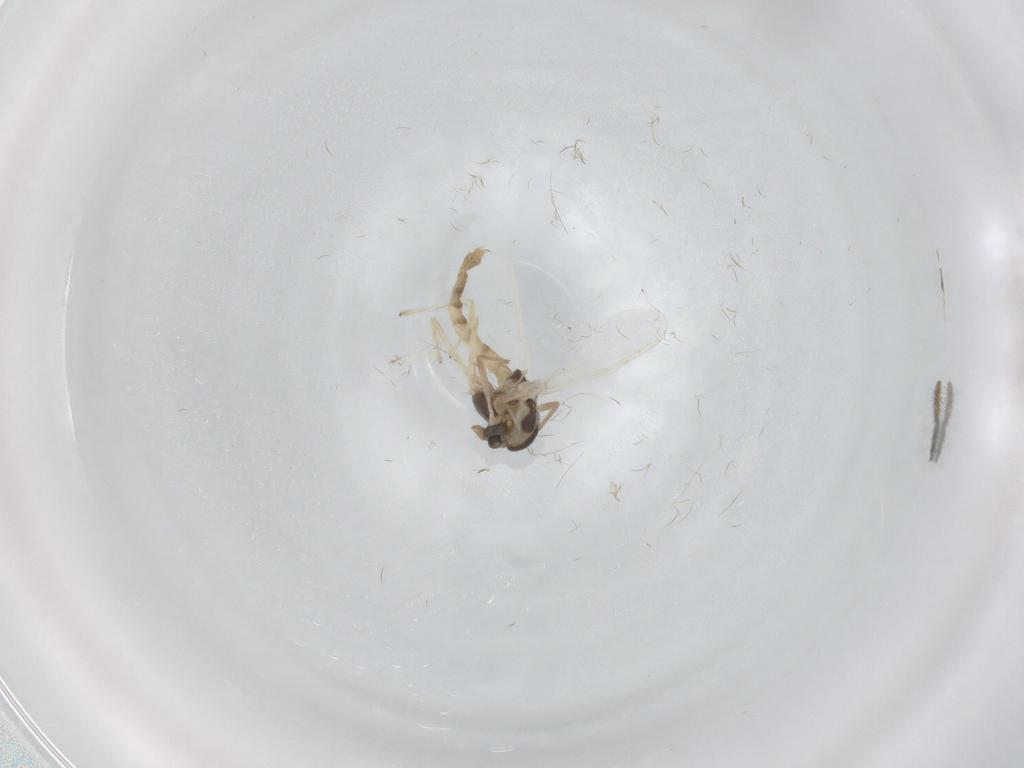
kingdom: Animalia
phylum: Arthropoda
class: Insecta
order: Diptera
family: Chironomidae
